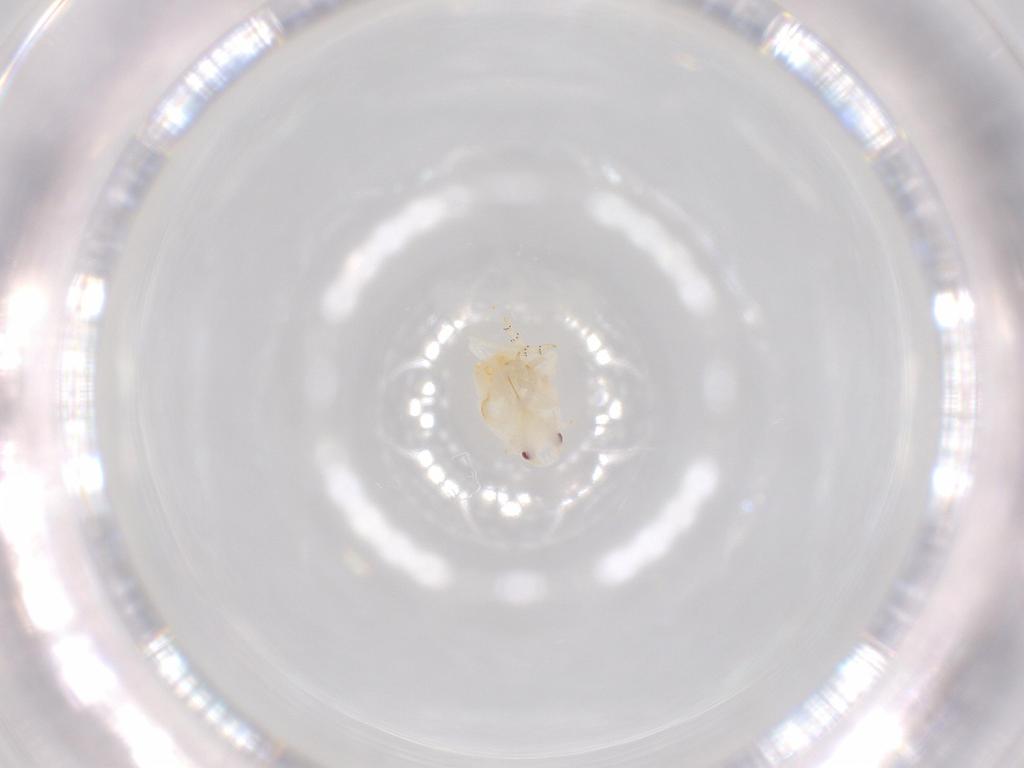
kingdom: Animalia
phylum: Arthropoda
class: Insecta
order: Hemiptera
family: Flatidae
